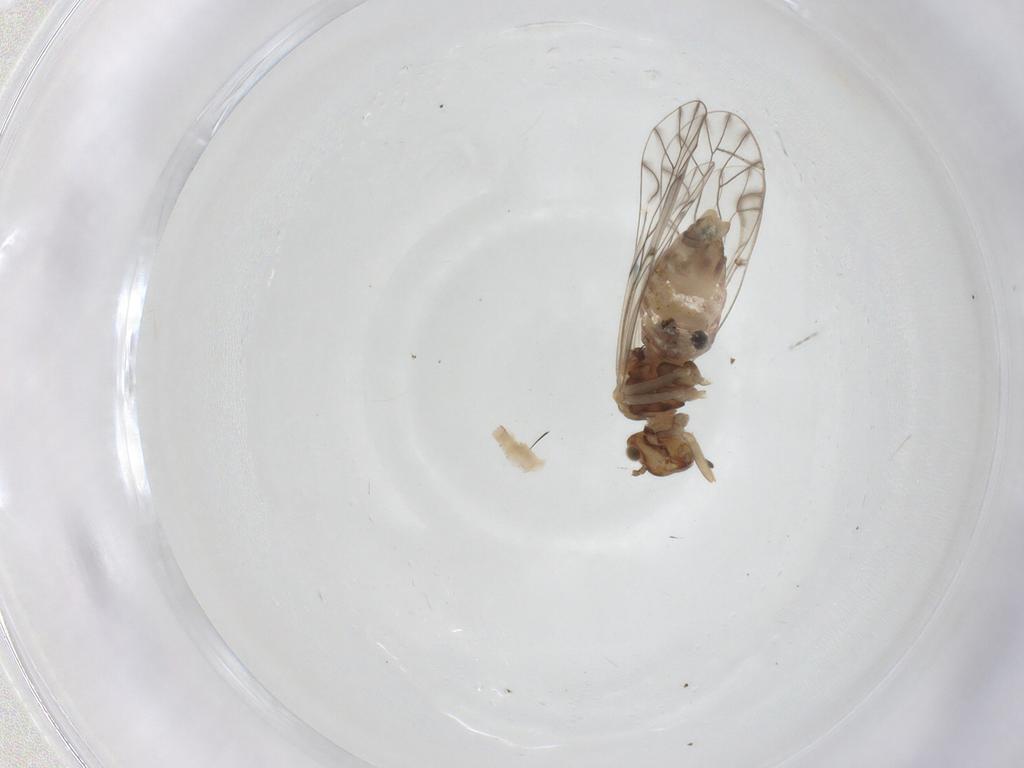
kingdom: Animalia
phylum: Arthropoda
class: Insecta
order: Psocodea
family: Lachesillidae
